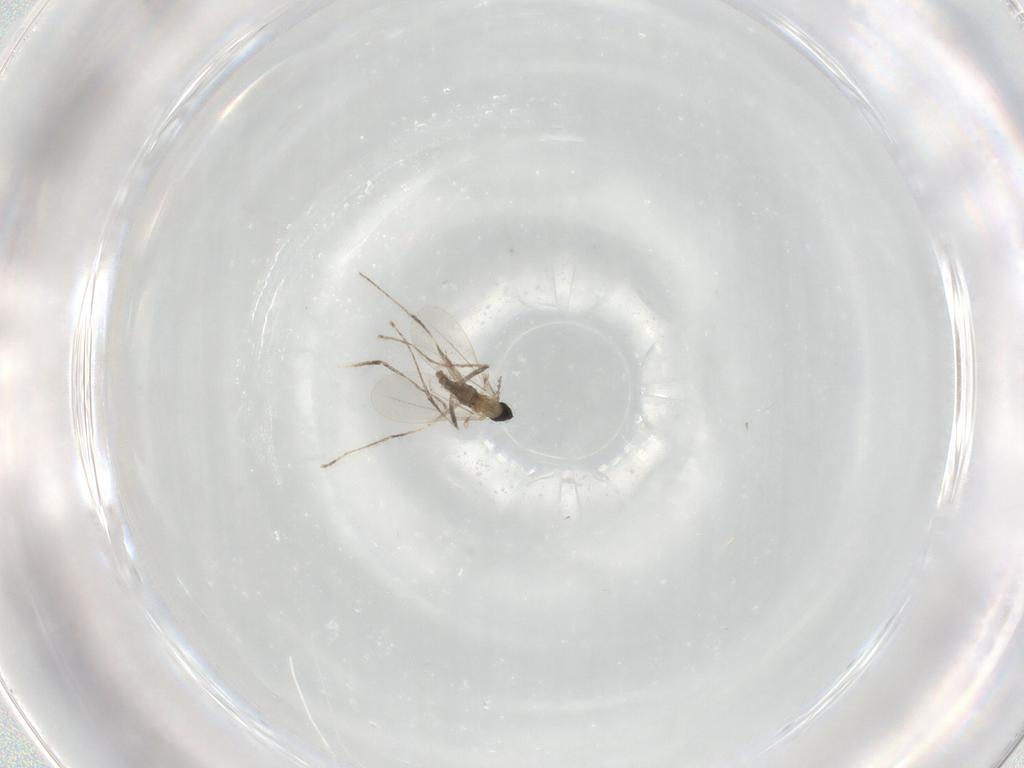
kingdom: Animalia
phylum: Arthropoda
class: Insecta
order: Diptera
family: Cecidomyiidae
